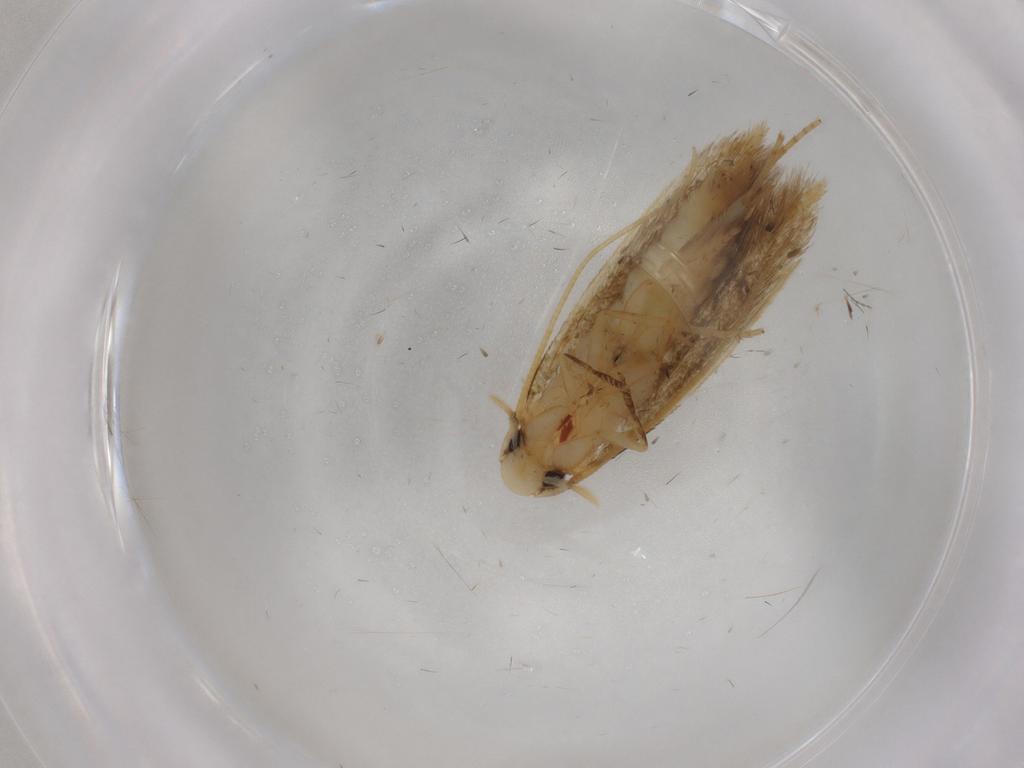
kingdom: Animalia
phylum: Arthropoda
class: Insecta
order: Lepidoptera
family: Tineidae
